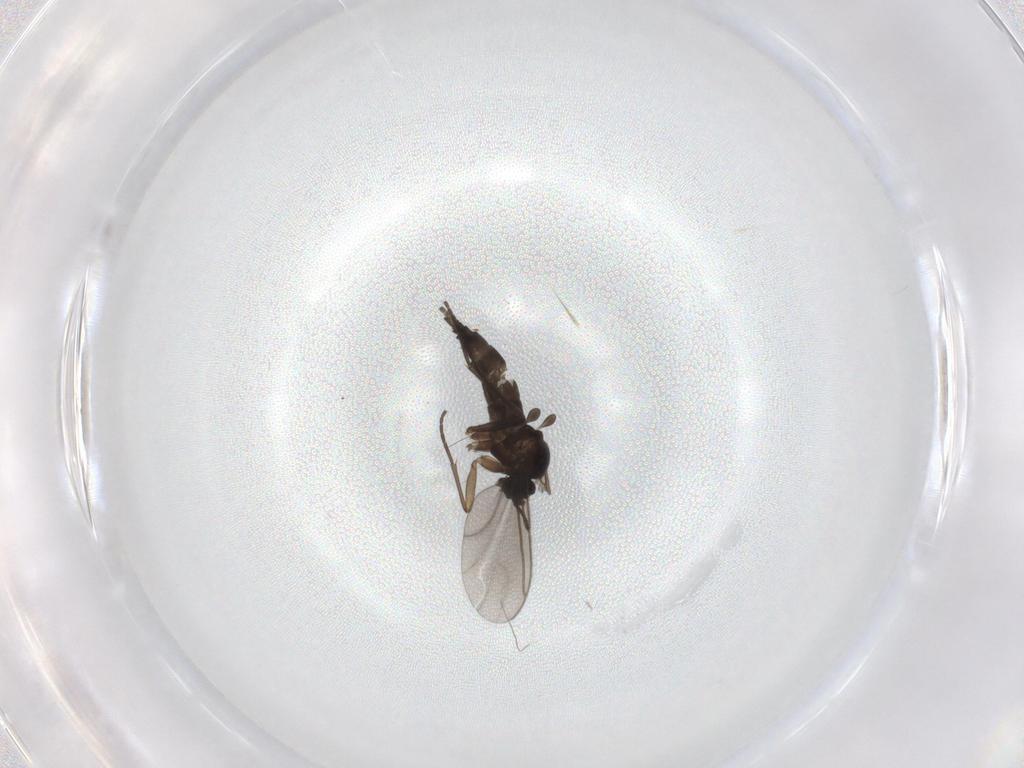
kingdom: Animalia
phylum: Arthropoda
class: Insecta
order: Diptera
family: Sciaridae
